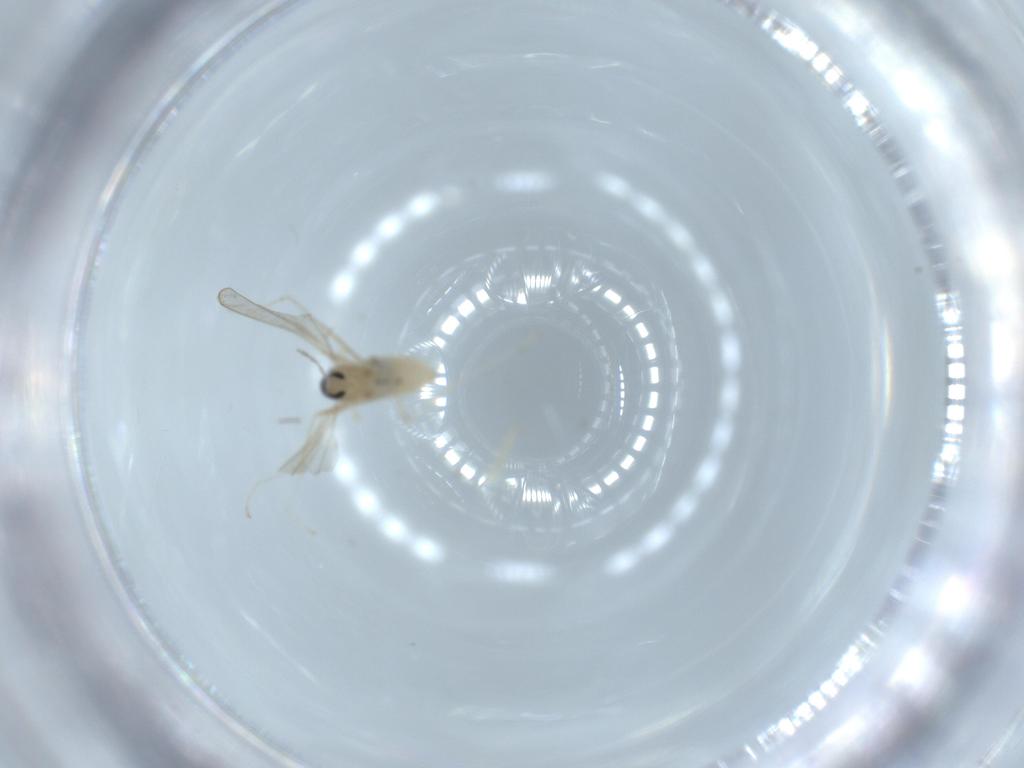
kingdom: Animalia
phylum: Arthropoda
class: Insecta
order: Diptera
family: Cecidomyiidae
